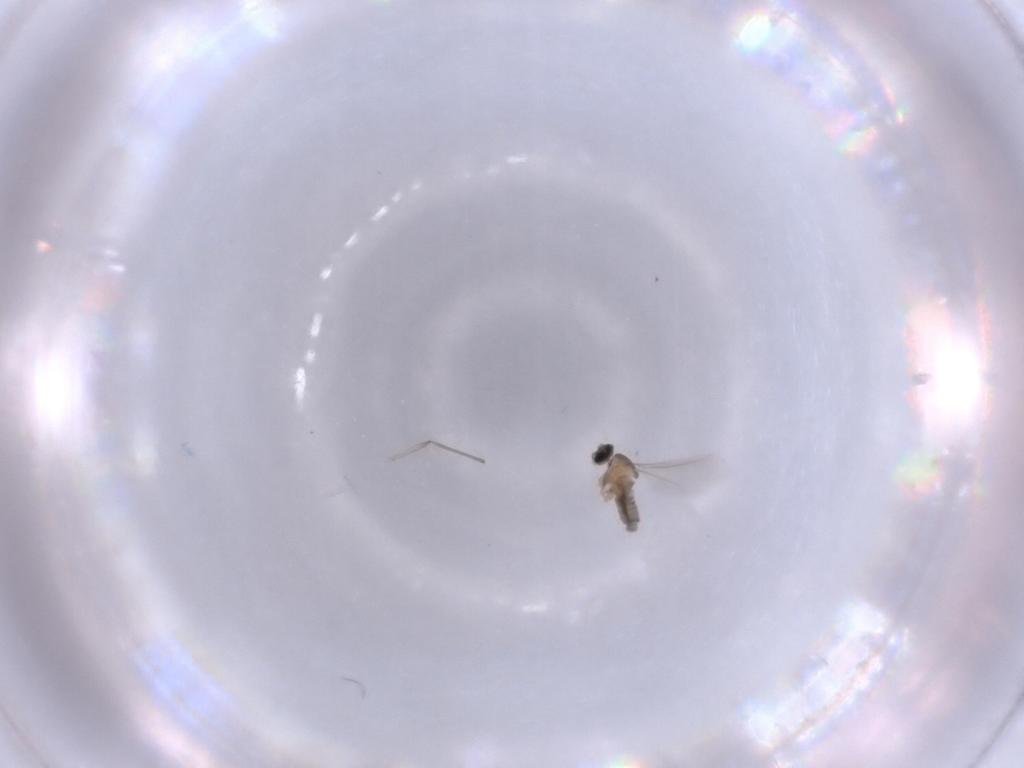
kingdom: Animalia
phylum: Arthropoda
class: Insecta
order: Diptera
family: Cecidomyiidae
